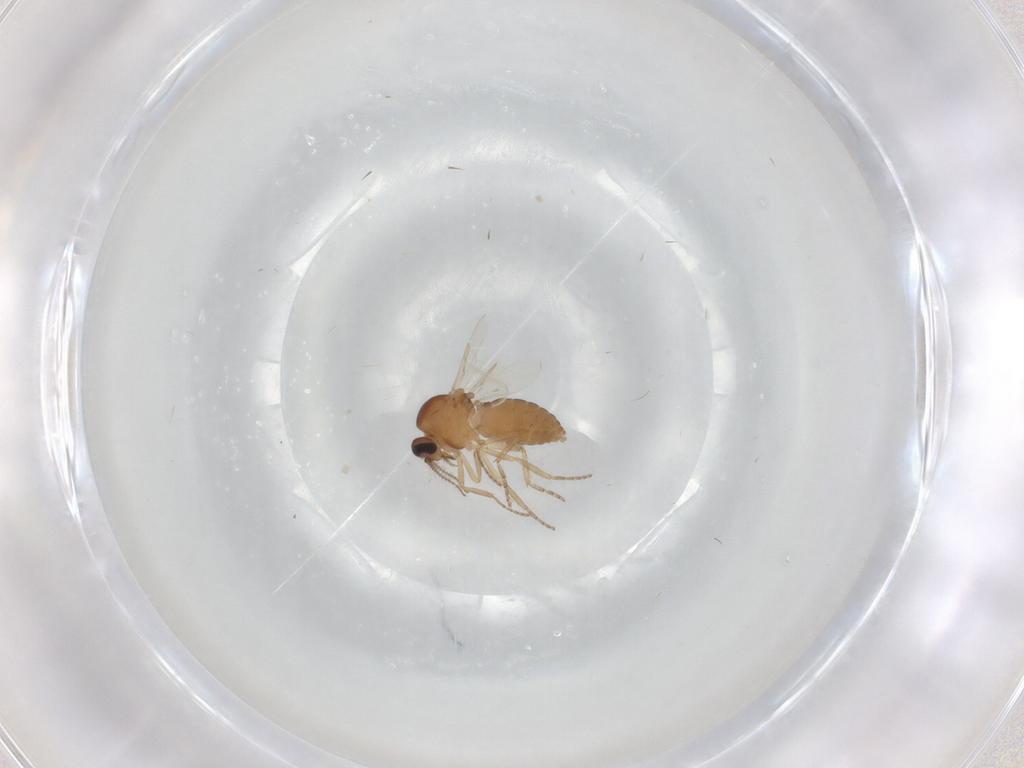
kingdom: Animalia
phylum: Arthropoda
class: Insecta
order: Diptera
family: Ceratopogonidae
